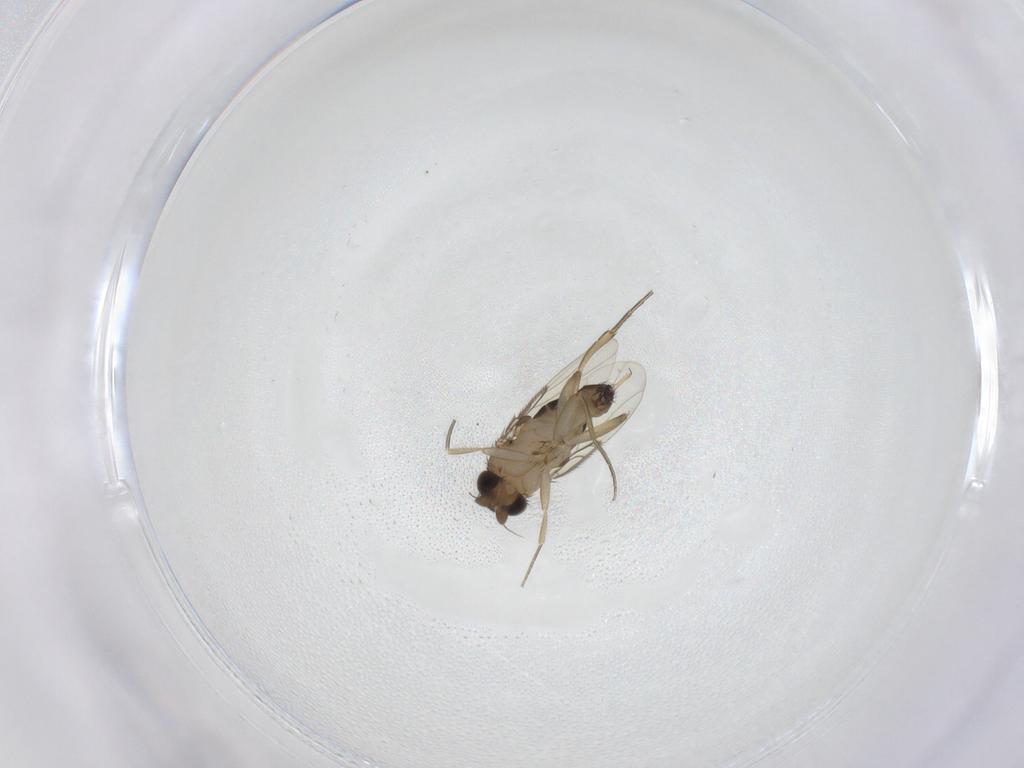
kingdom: Animalia
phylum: Arthropoda
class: Insecta
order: Diptera
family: Phoridae
